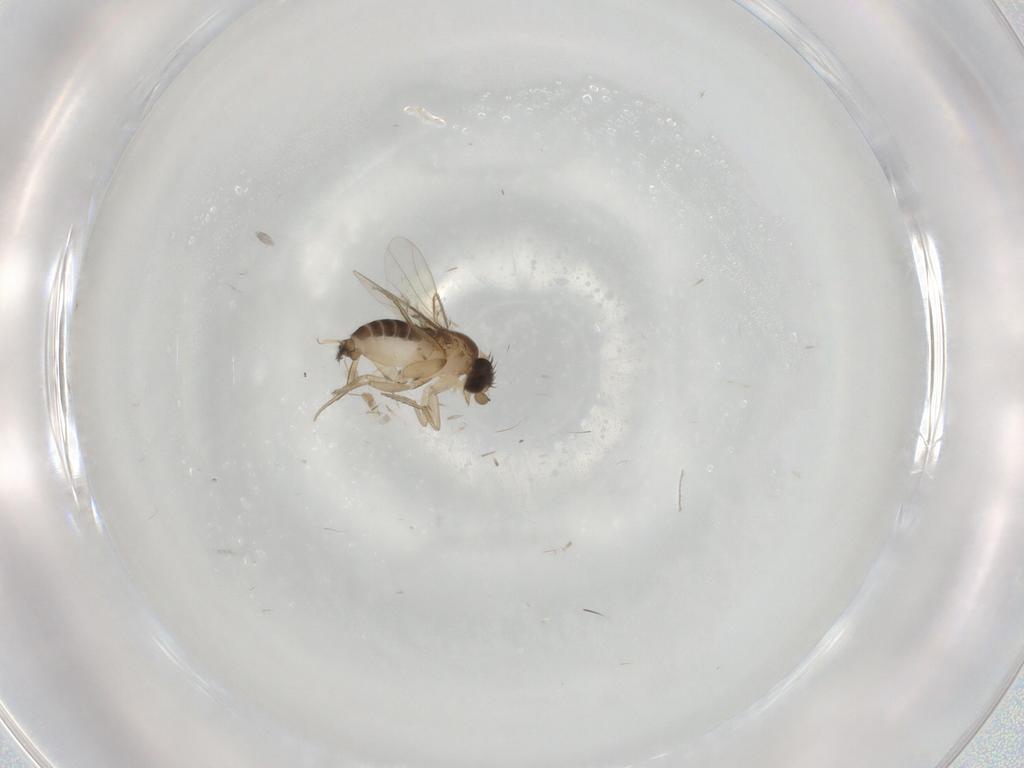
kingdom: Animalia
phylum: Arthropoda
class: Insecta
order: Diptera
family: Phoridae
